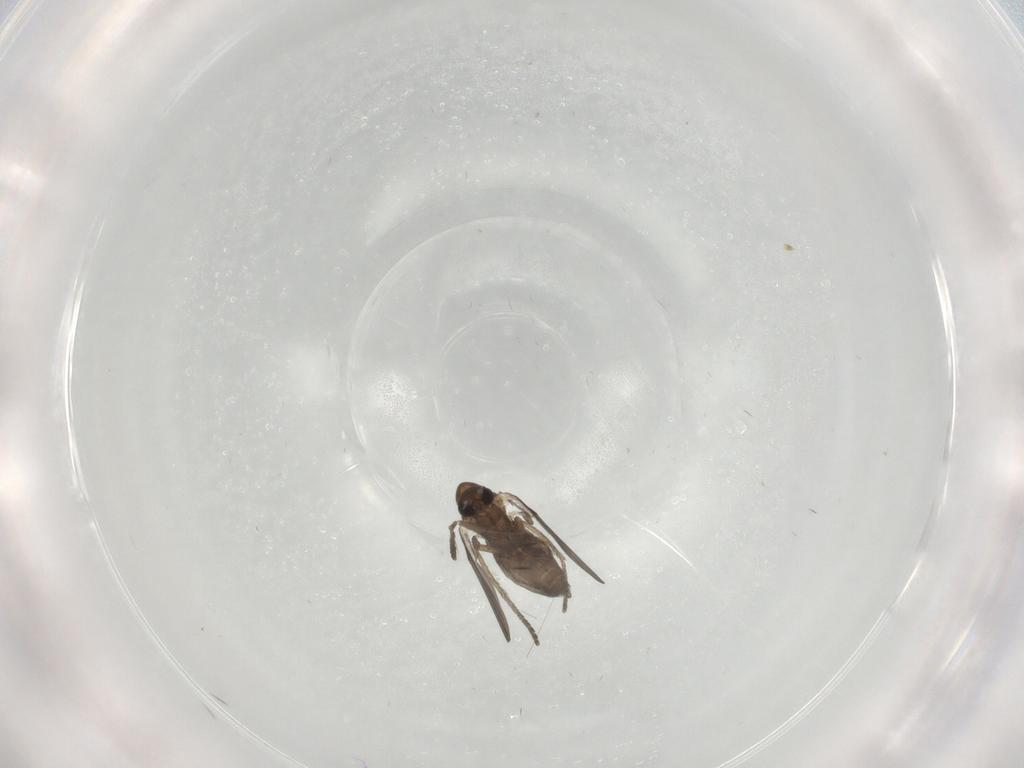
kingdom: Animalia
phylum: Arthropoda
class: Insecta
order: Diptera
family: Psychodidae
